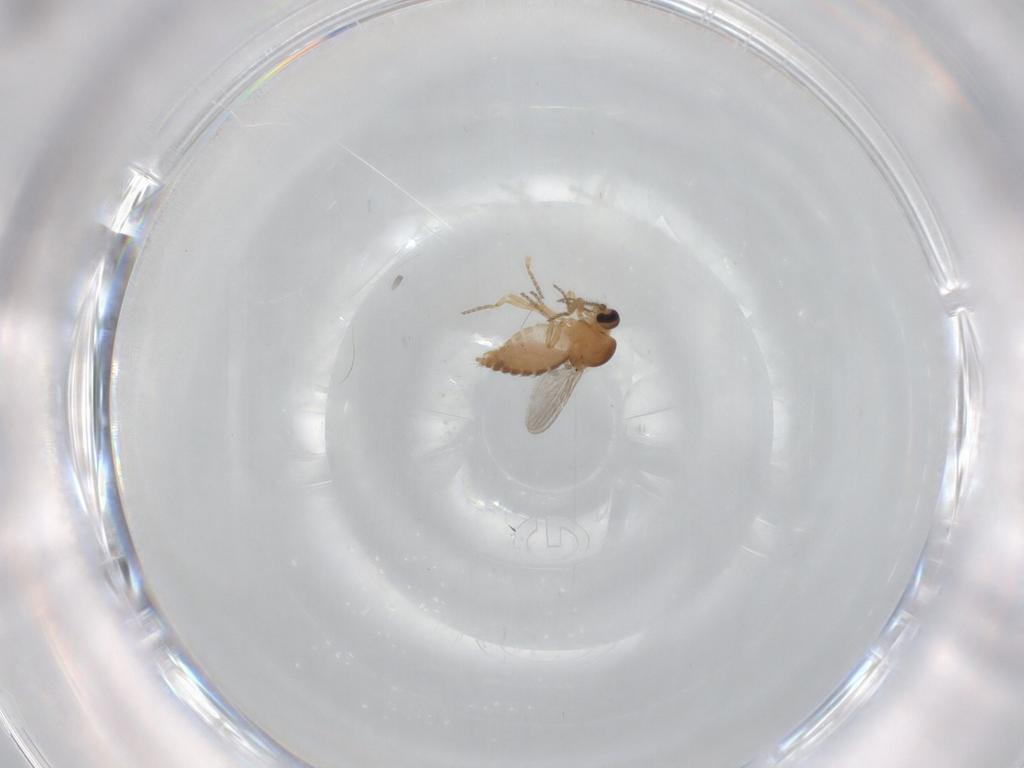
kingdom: Animalia
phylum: Arthropoda
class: Insecta
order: Diptera
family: Ceratopogonidae
